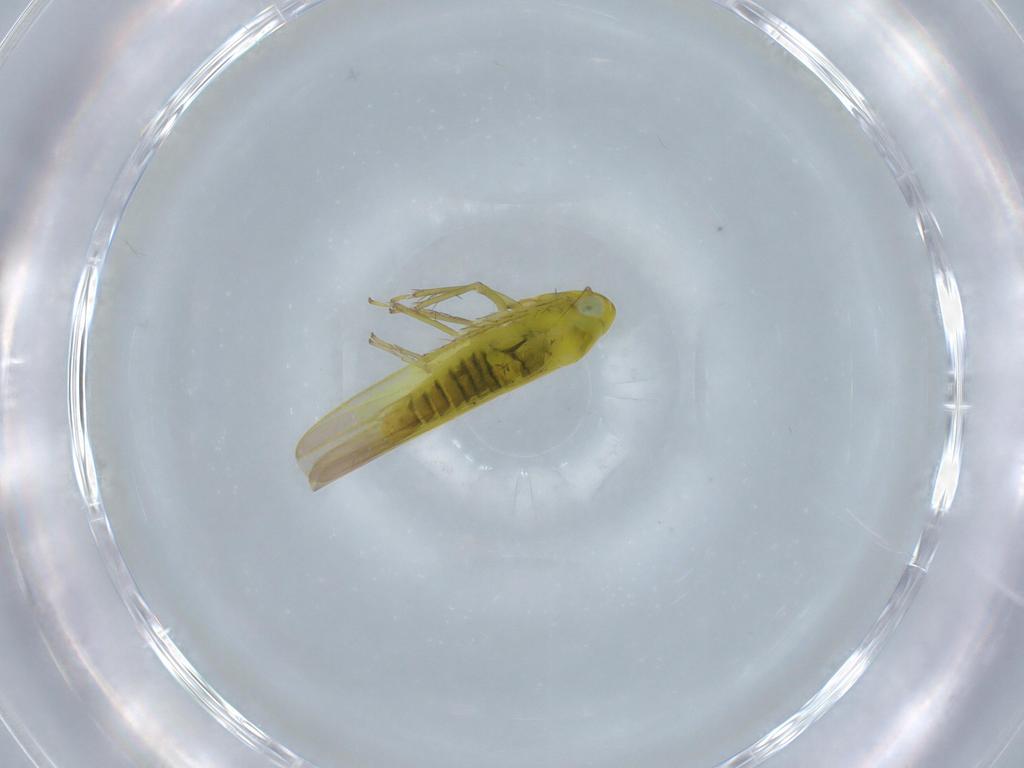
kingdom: Animalia
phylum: Arthropoda
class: Insecta
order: Hemiptera
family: Cicadellidae
